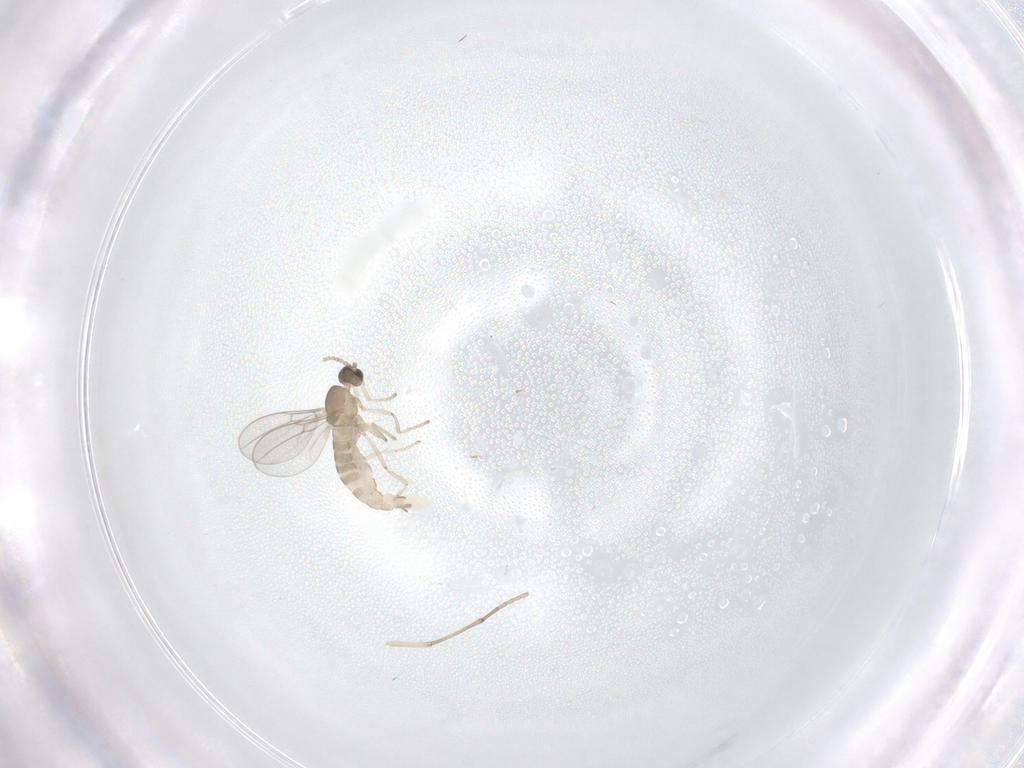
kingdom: Animalia
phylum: Arthropoda
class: Insecta
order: Diptera
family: Cecidomyiidae
